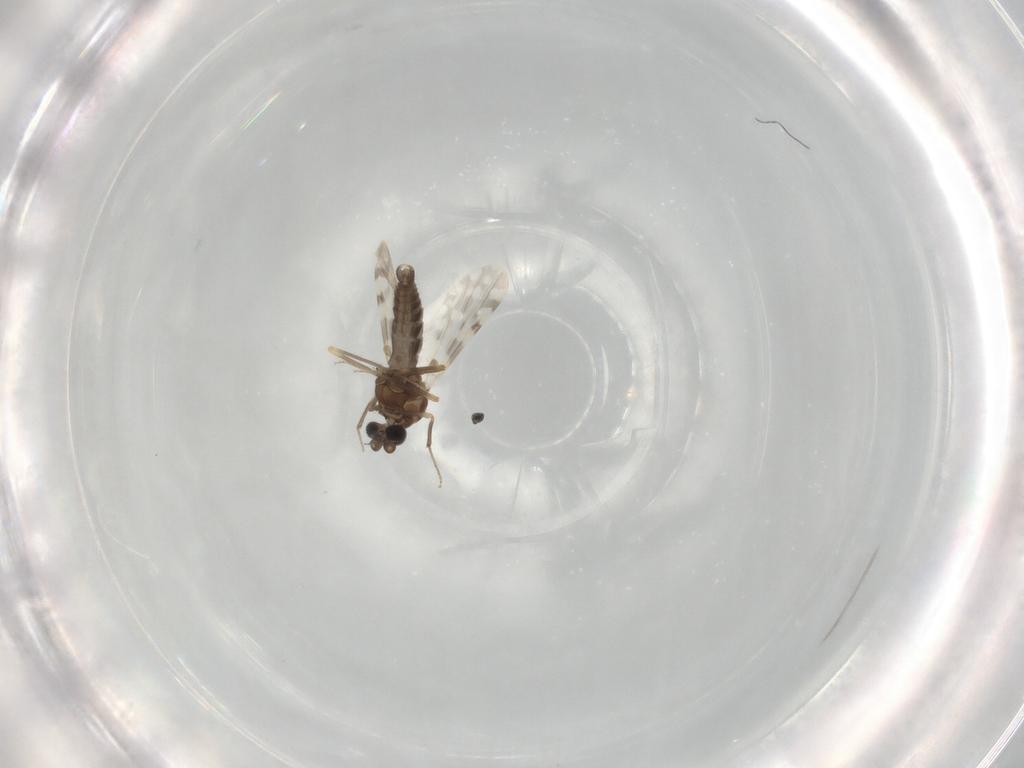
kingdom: Animalia
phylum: Arthropoda
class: Insecta
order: Diptera
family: Ceratopogonidae
